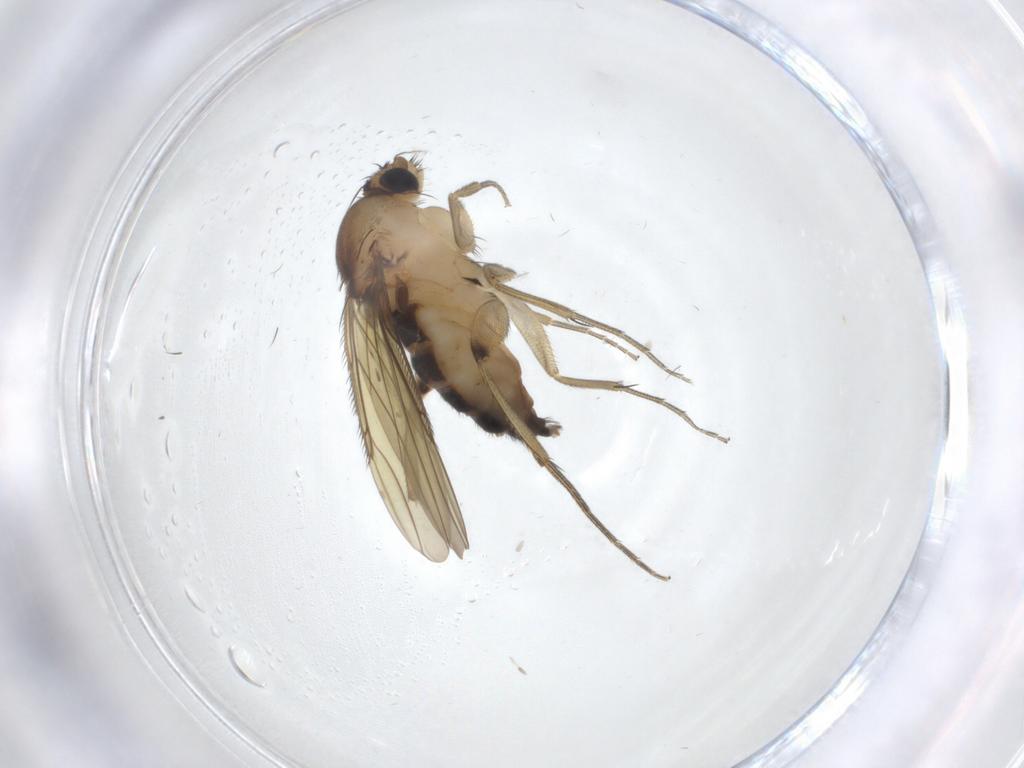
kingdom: Animalia
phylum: Arthropoda
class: Insecta
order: Diptera
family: Phoridae
